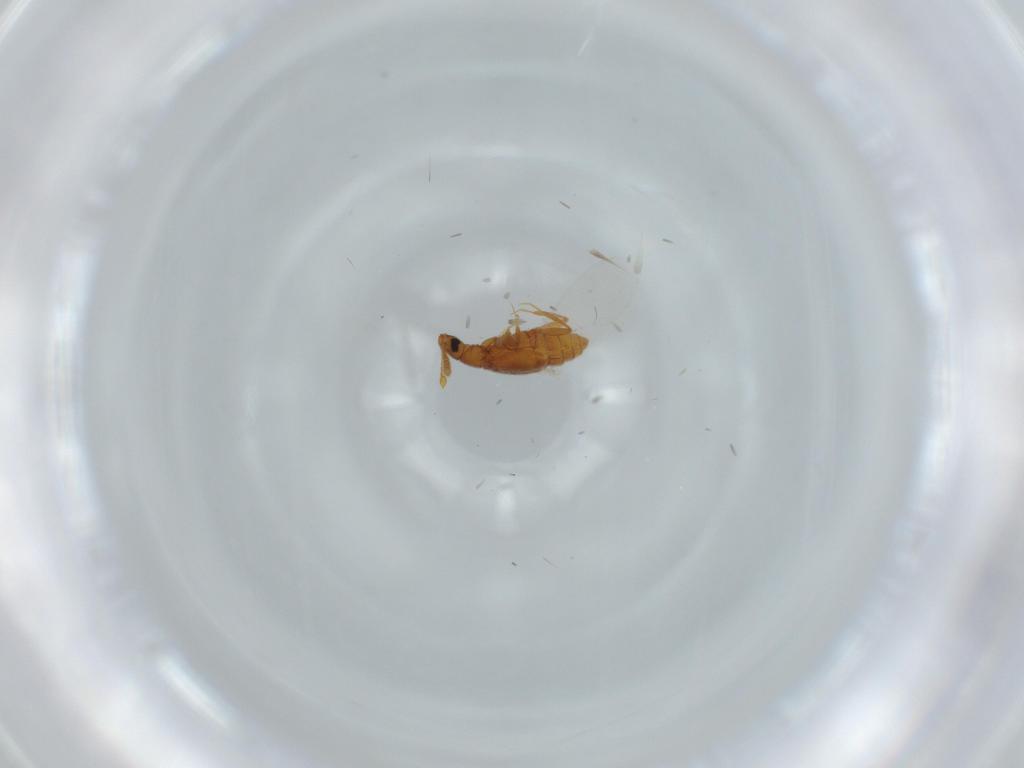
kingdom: Animalia
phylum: Arthropoda
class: Insecta
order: Coleoptera
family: Staphylinidae
